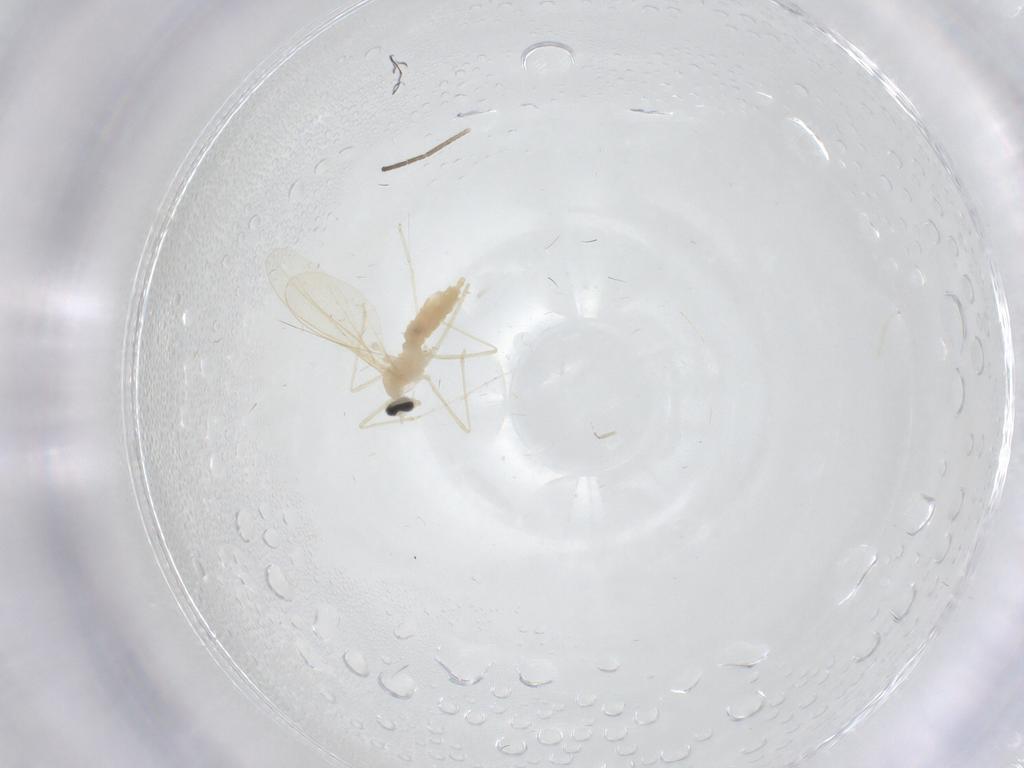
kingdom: Animalia
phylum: Arthropoda
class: Insecta
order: Diptera
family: Cecidomyiidae
